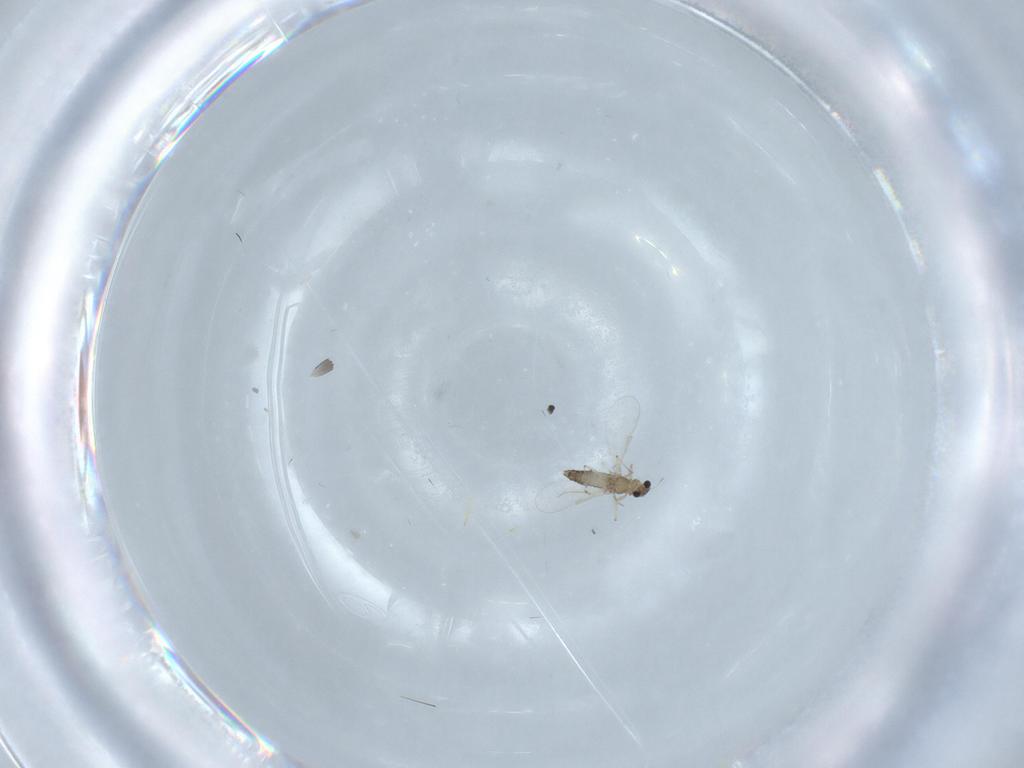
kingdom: Animalia
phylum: Arthropoda
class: Insecta
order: Diptera
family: Chironomidae
